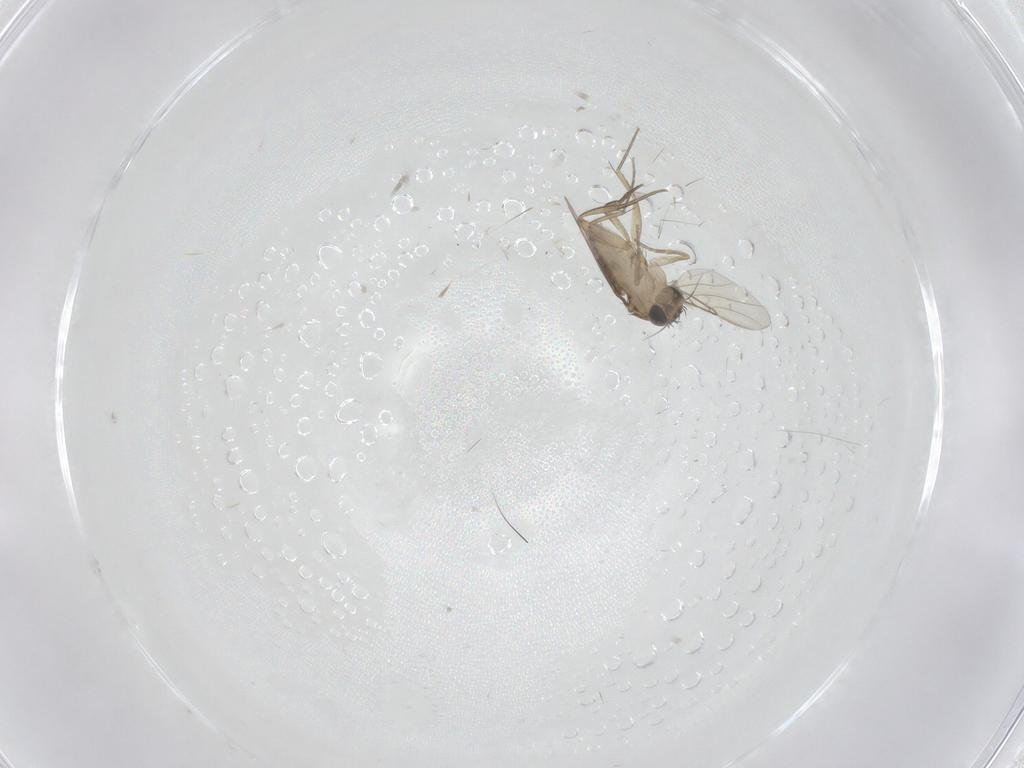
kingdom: Animalia
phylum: Arthropoda
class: Insecta
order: Diptera
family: Phoridae
